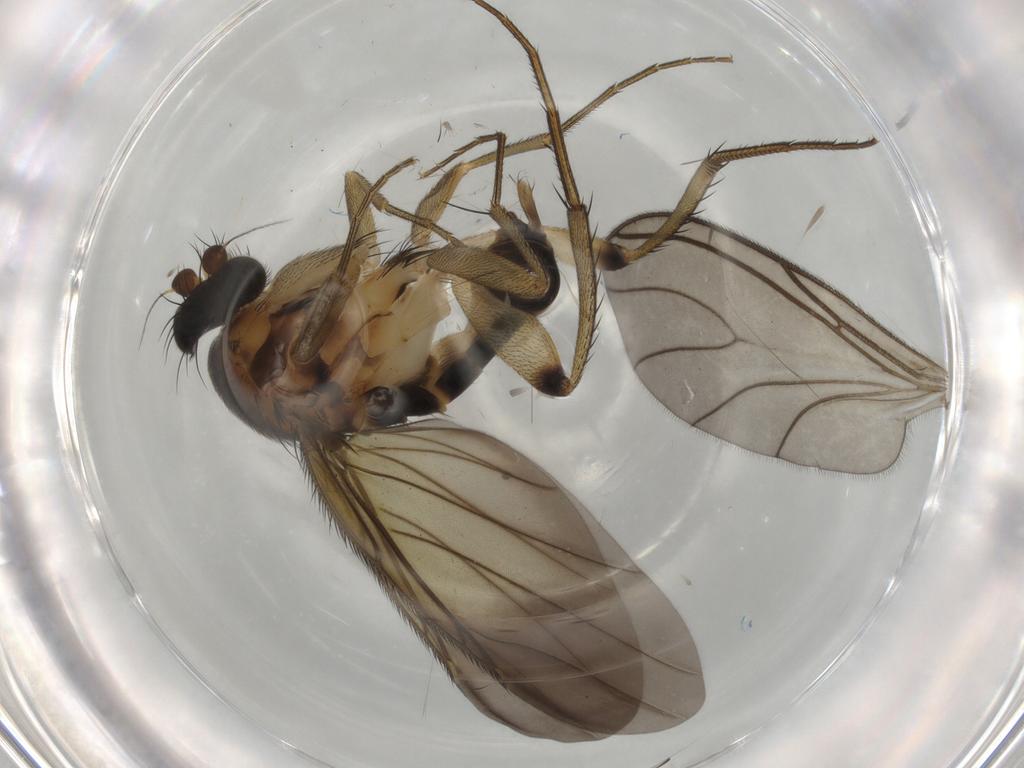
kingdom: Animalia
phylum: Arthropoda
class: Insecta
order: Diptera
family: Phoridae
